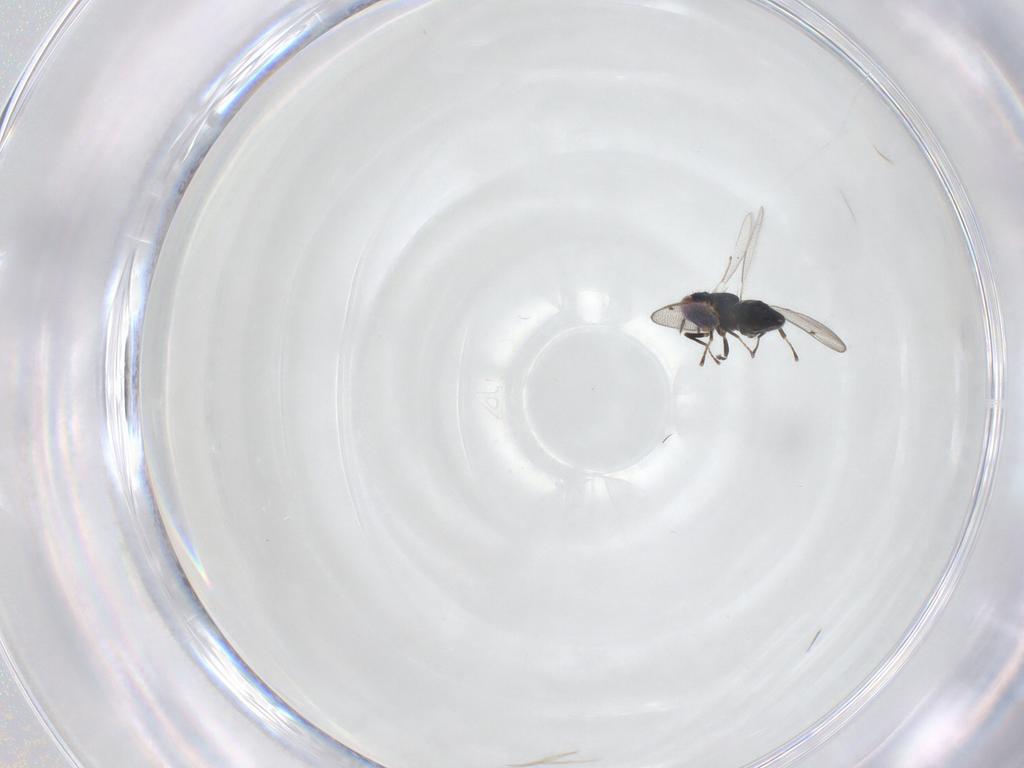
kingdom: Animalia
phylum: Arthropoda
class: Insecta
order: Hymenoptera
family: Eulophidae
